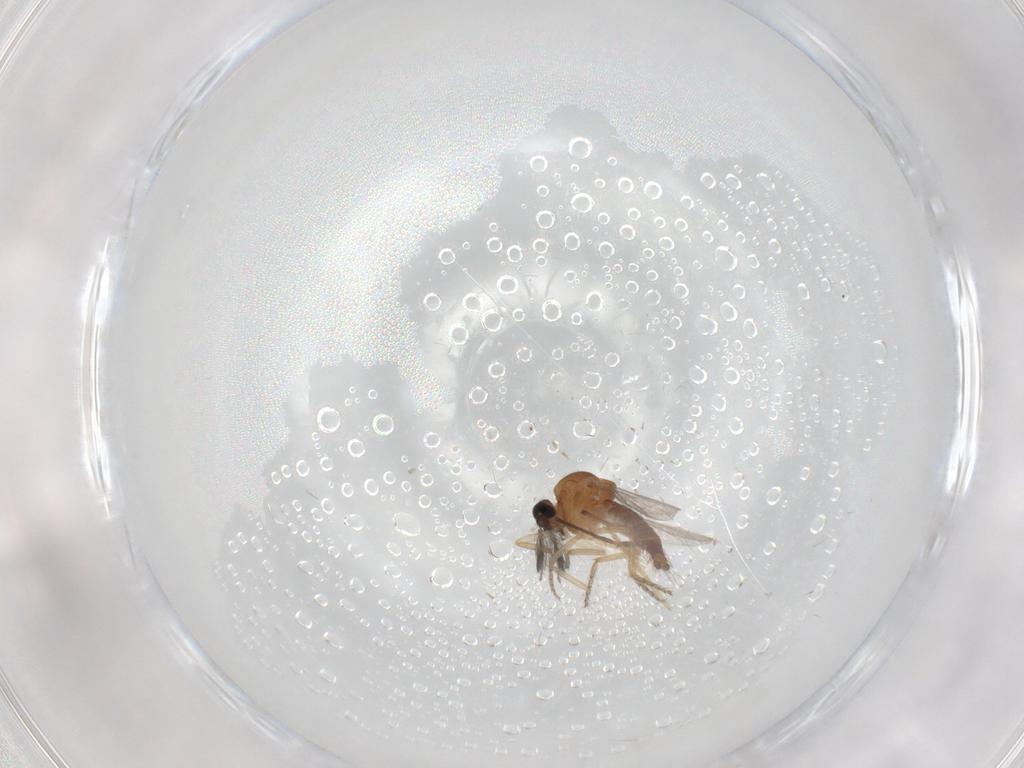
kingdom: Animalia
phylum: Arthropoda
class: Insecta
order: Diptera
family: Ceratopogonidae
